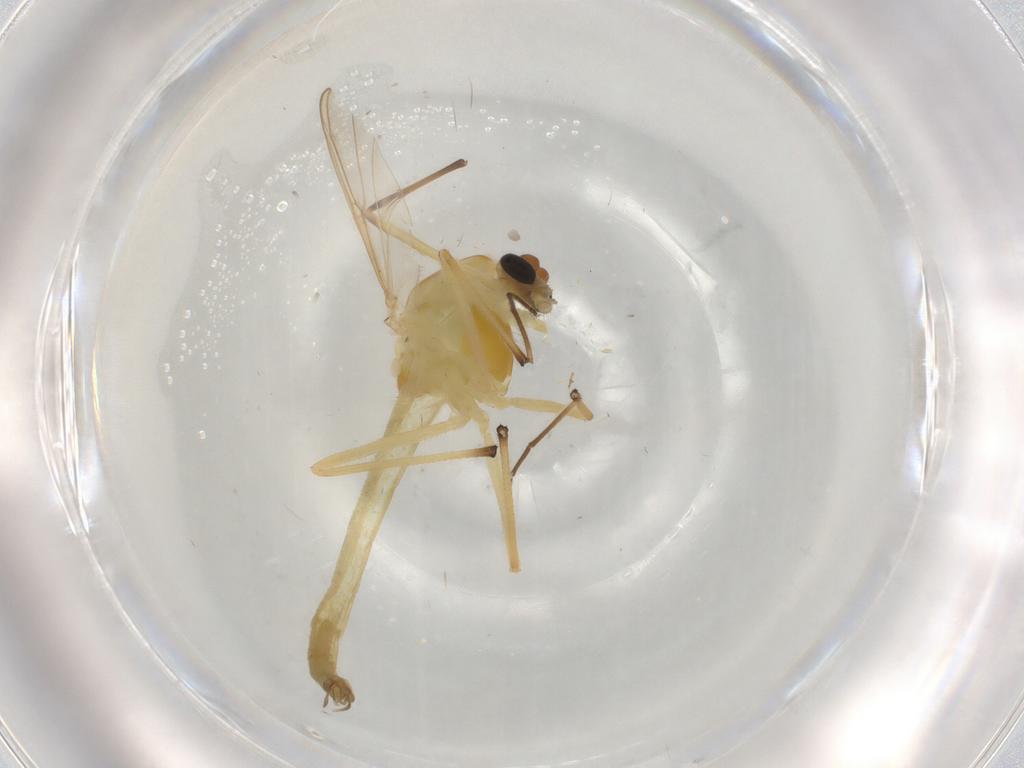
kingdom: Animalia
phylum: Arthropoda
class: Insecta
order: Diptera
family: Chironomidae
